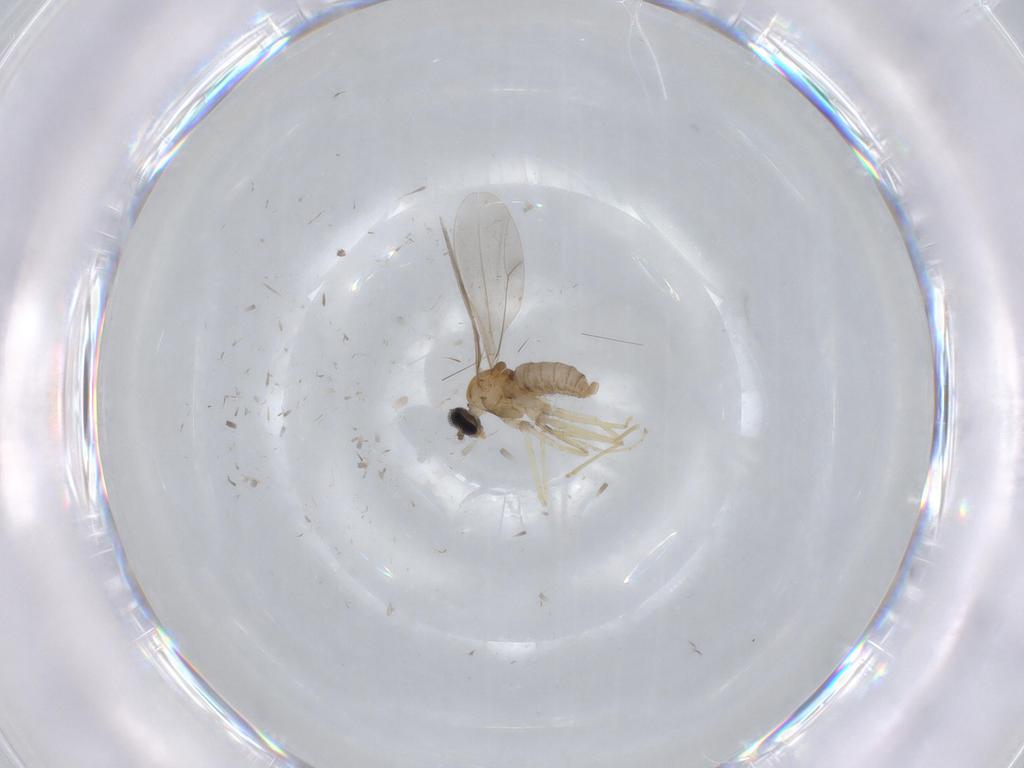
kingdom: Animalia
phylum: Arthropoda
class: Insecta
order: Diptera
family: Cecidomyiidae
